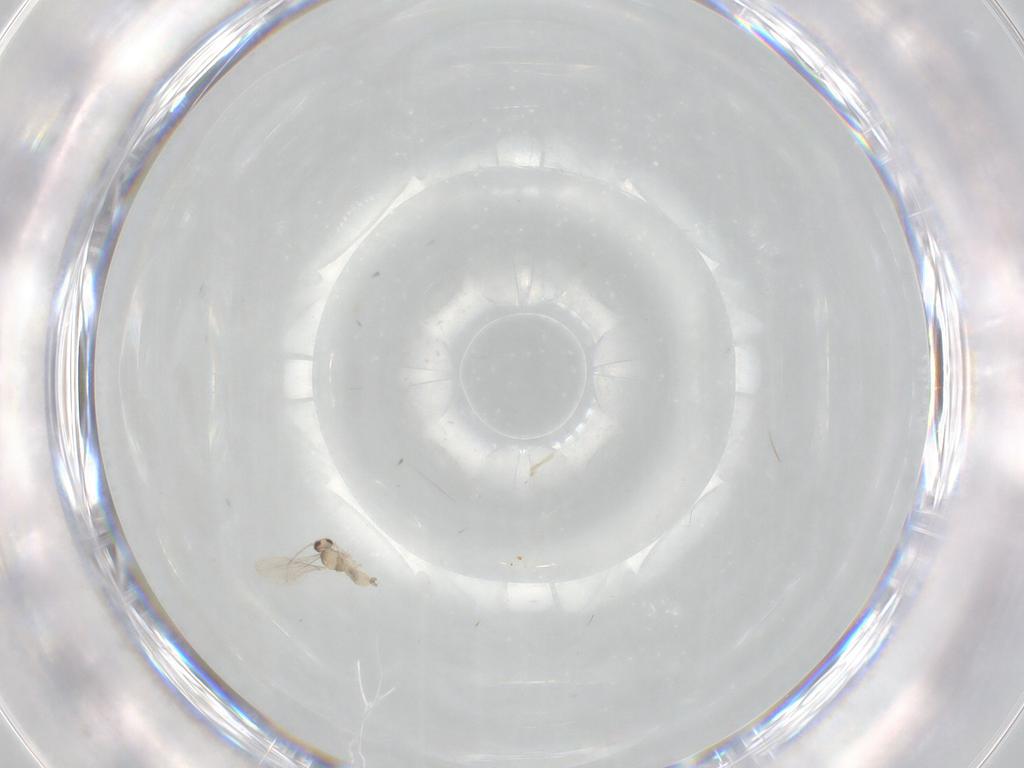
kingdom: Animalia
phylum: Arthropoda
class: Insecta
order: Diptera
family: Cecidomyiidae
